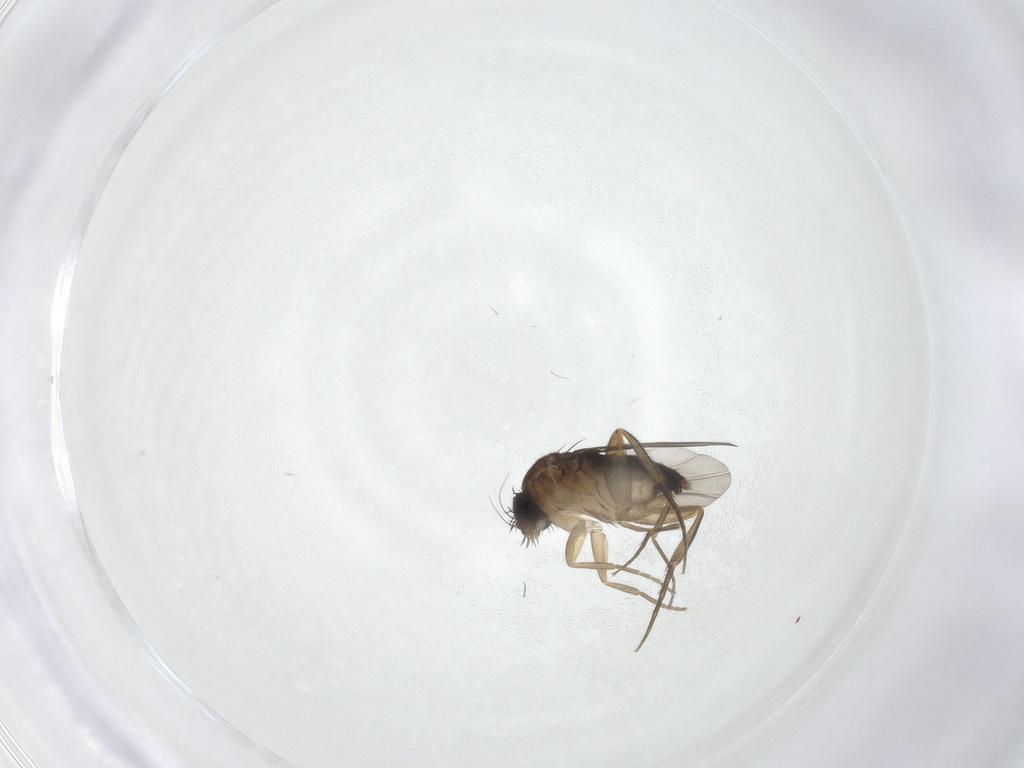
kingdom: Animalia
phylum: Arthropoda
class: Insecta
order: Diptera
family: Phoridae
